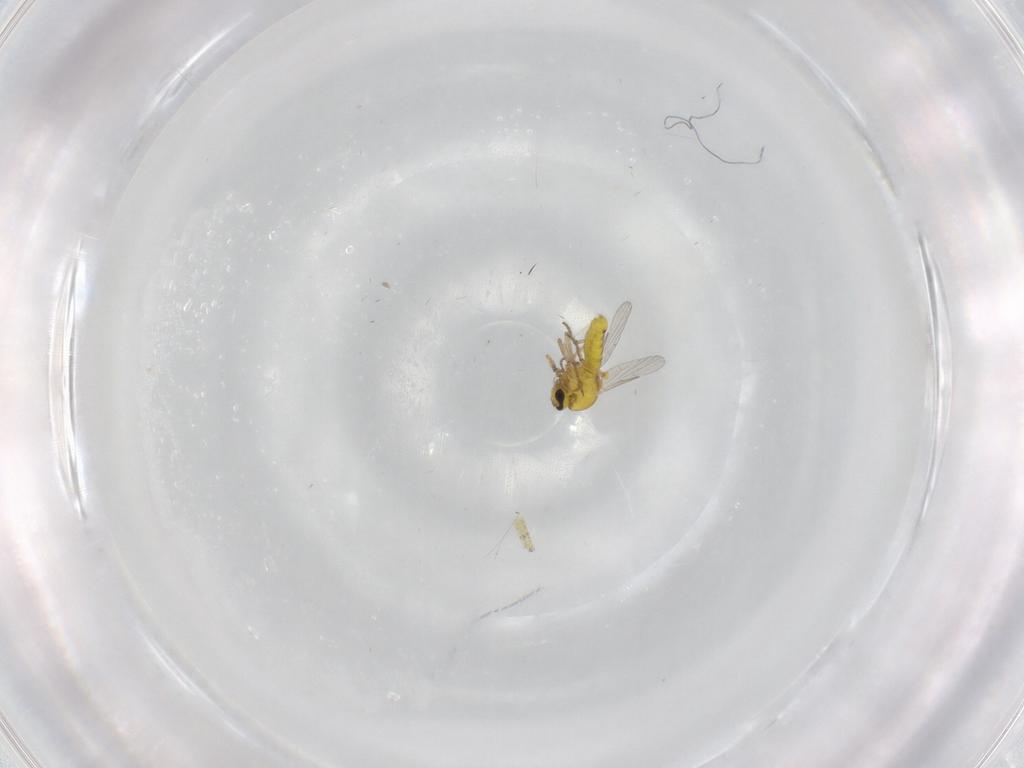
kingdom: Animalia
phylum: Arthropoda
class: Insecta
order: Diptera
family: Ceratopogonidae
